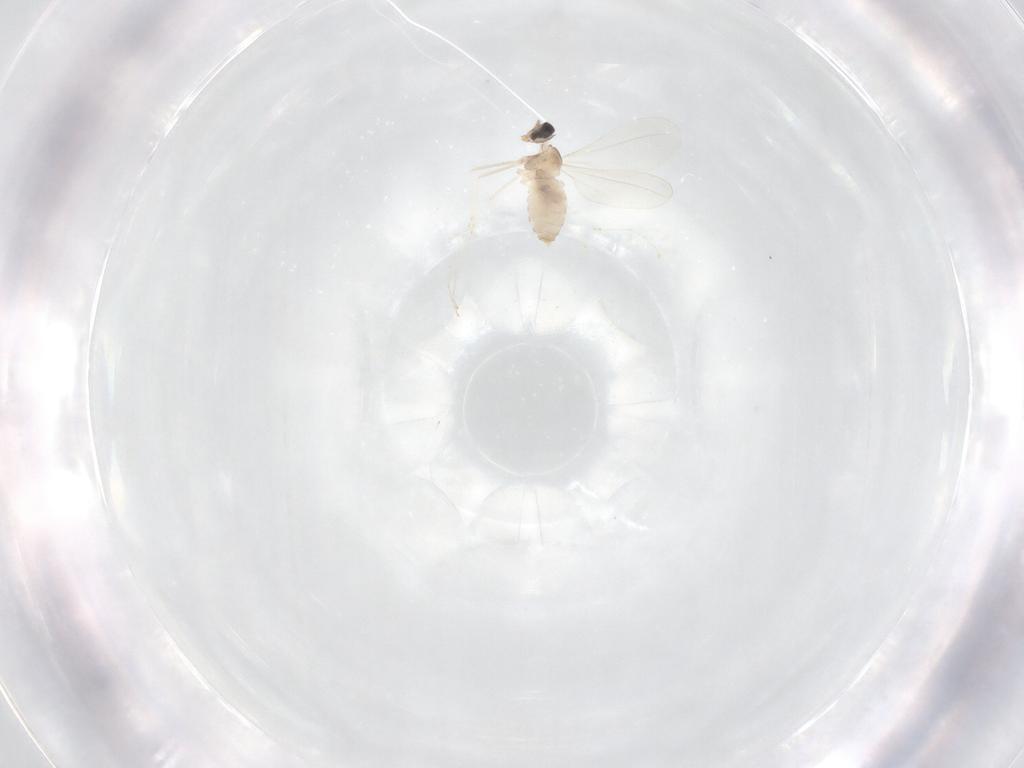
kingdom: Animalia
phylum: Arthropoda
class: Insecta
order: Diptera
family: Cecidomyiidae
